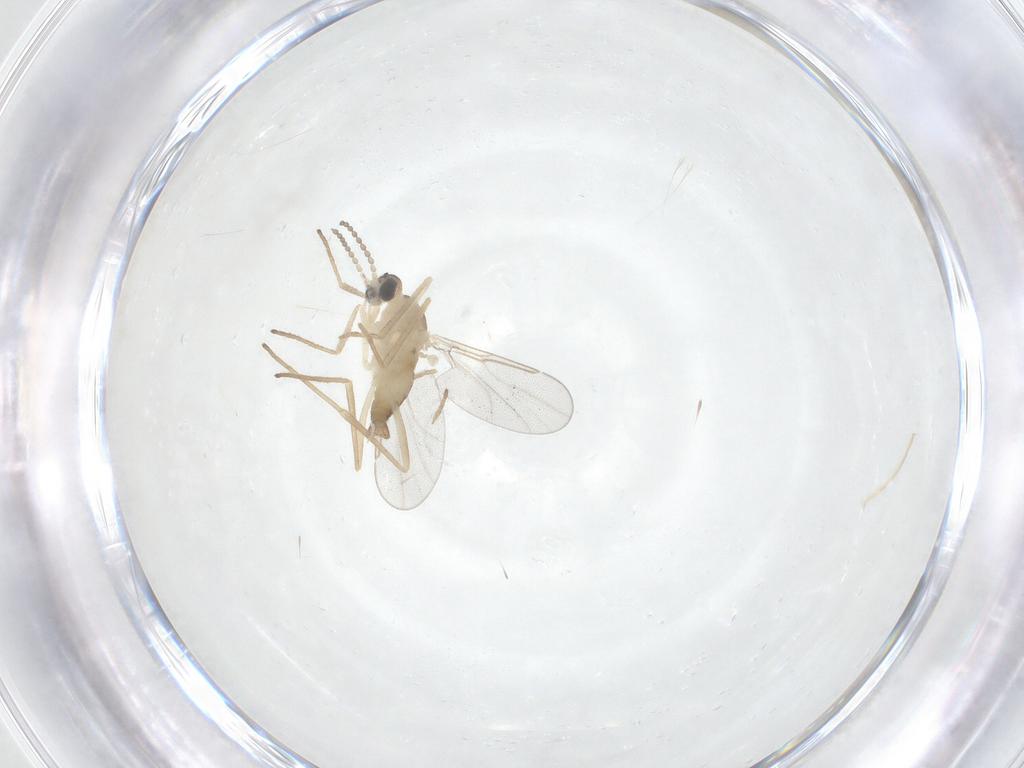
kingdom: Animalia
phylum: Arthropoda
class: Insecta
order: Diptera
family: Cecidomyiidae
